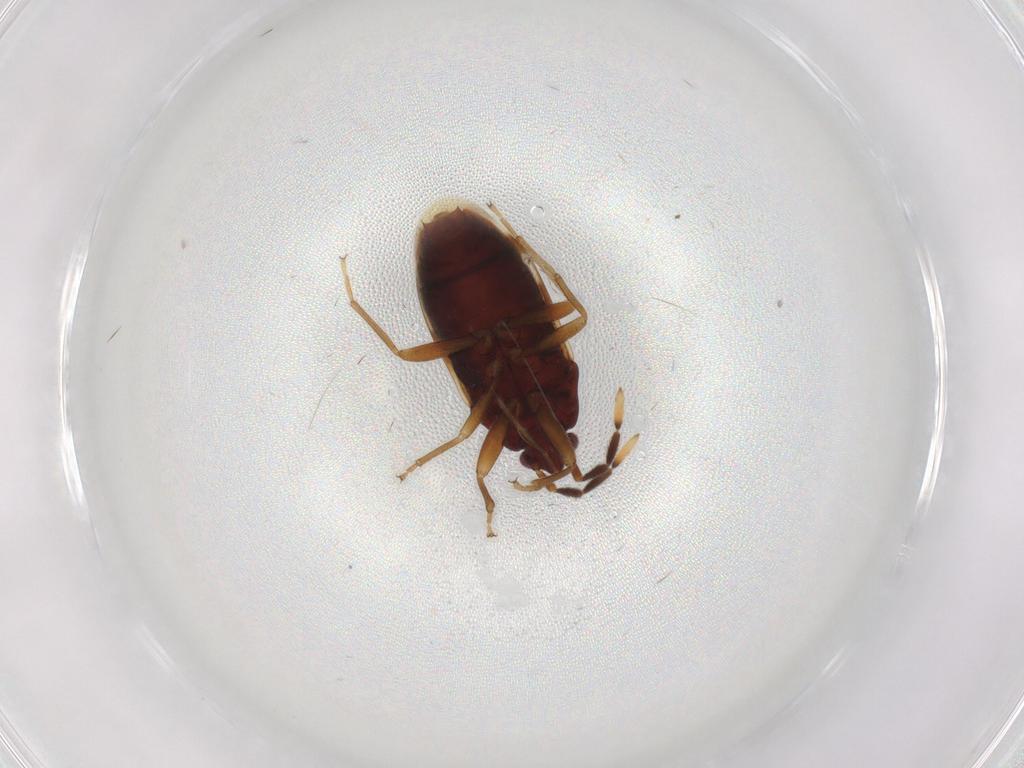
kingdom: Animalia
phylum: Arthropoda
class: Insecta
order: Hemiptera
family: Rhyparochromidae
